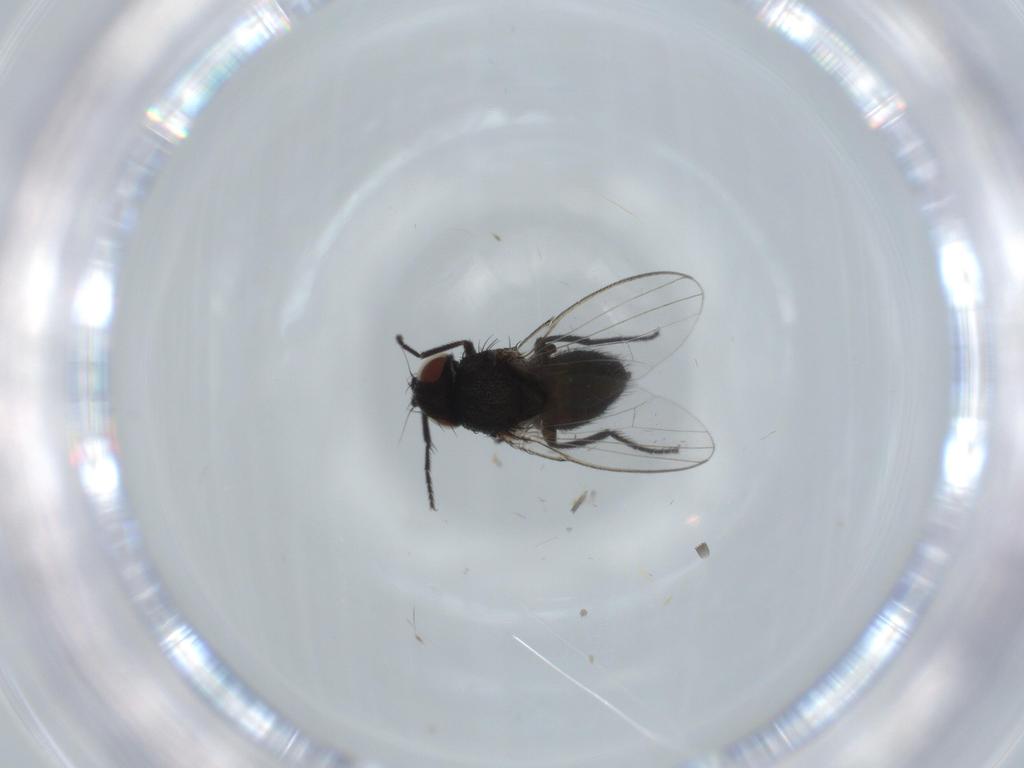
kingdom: Animalia
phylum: Arthropoda
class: Insecta
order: Diptera
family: Milichiidae
